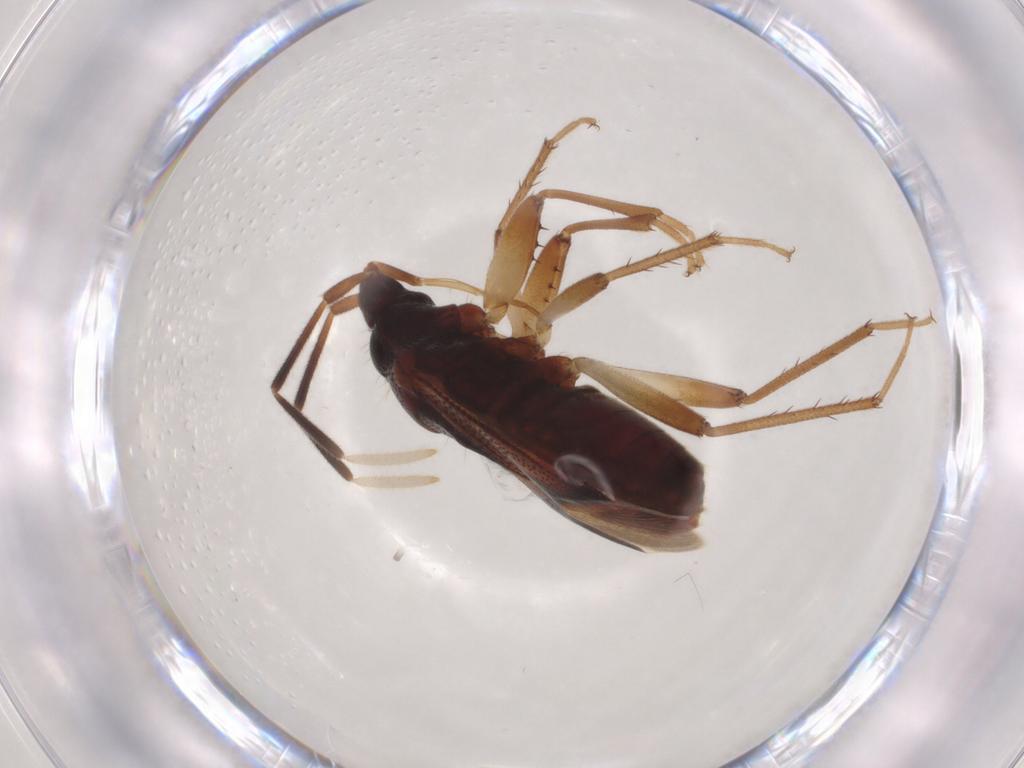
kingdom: Animalia
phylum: Arthropoda
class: Insecta
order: Hemiptera
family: Rhyparochromidae
